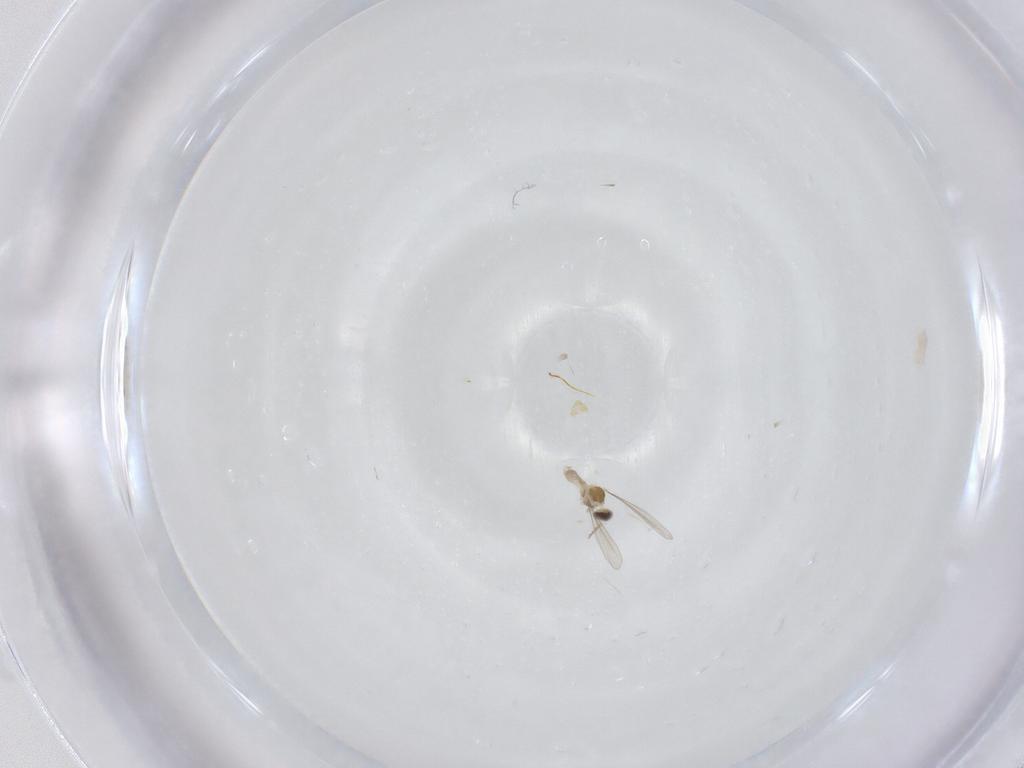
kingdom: Animalia
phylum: Arthropoda
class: Insecta
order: Diptera
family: Cecidomyiidae
